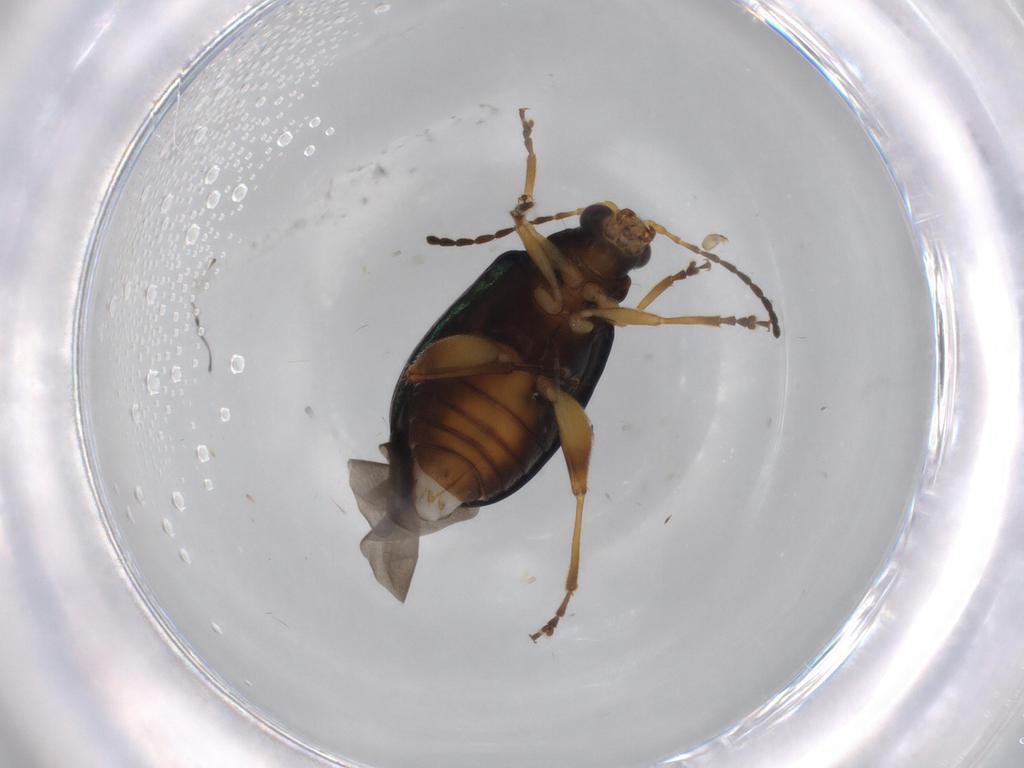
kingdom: Animalia
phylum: Arthropoda
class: Insecta
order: Coleoptera
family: Chrysomelidae
